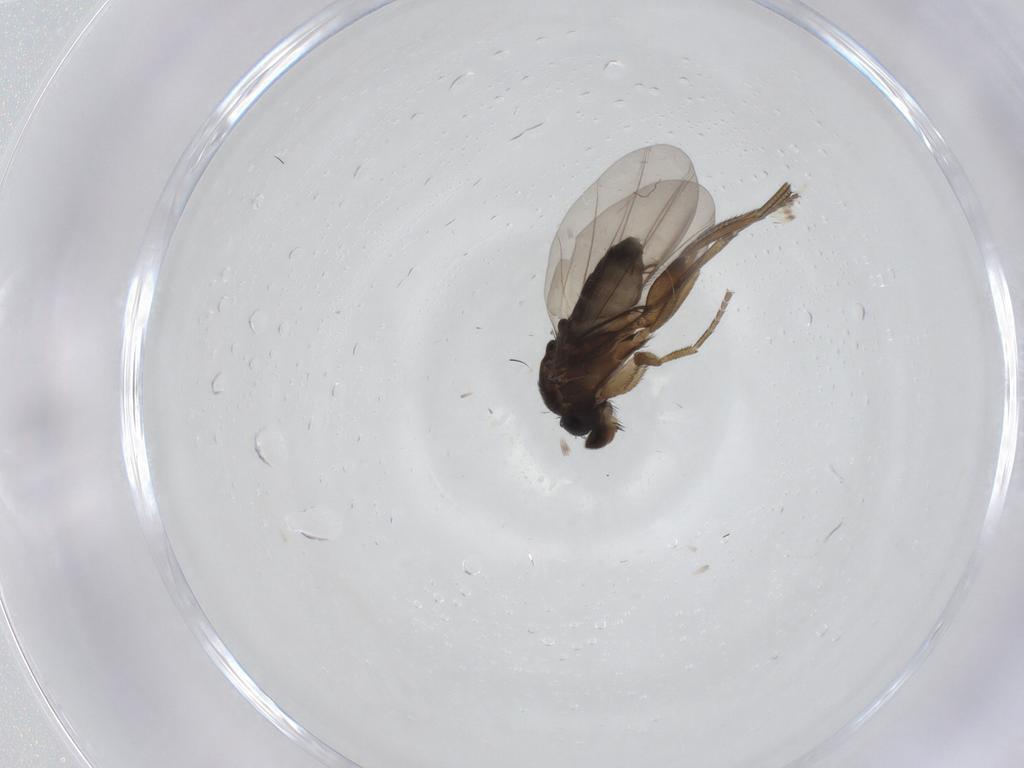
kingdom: Animalia
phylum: Arthropoda
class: Insecta
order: Diptera
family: Phoridae
